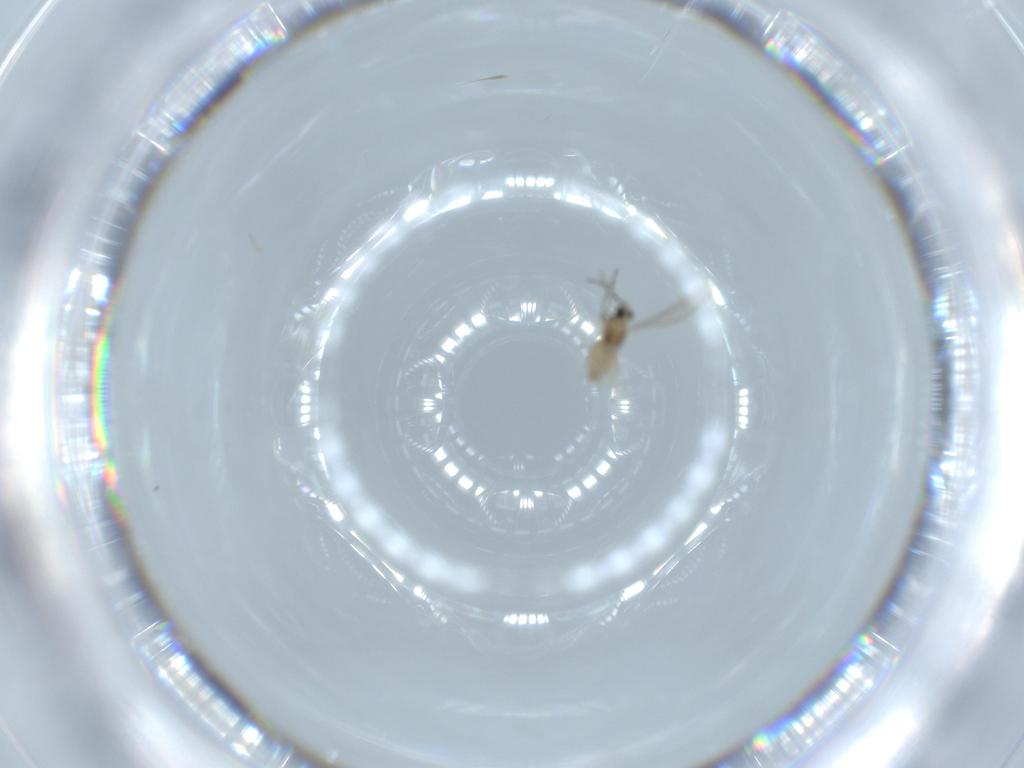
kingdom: Animalia
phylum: Arthropoda
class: Insecta
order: Diptera
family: Cecidomyiidae
